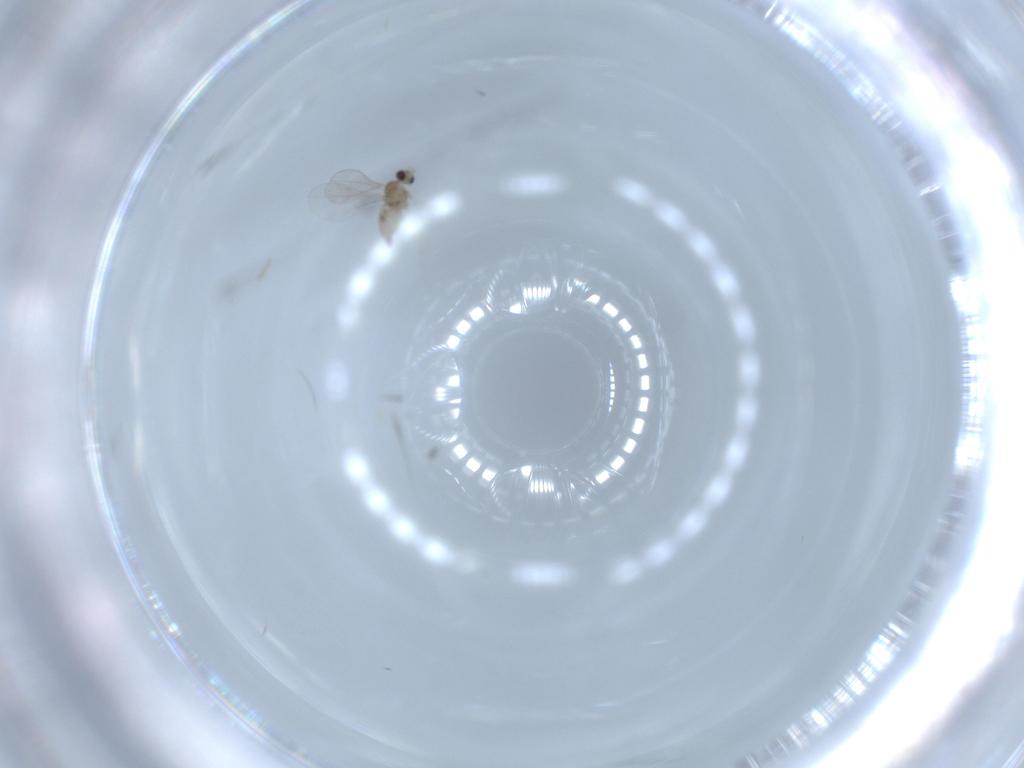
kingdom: Animalia
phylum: Arthropoda
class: Insecta
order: Diptera
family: Cecidomyiidae
